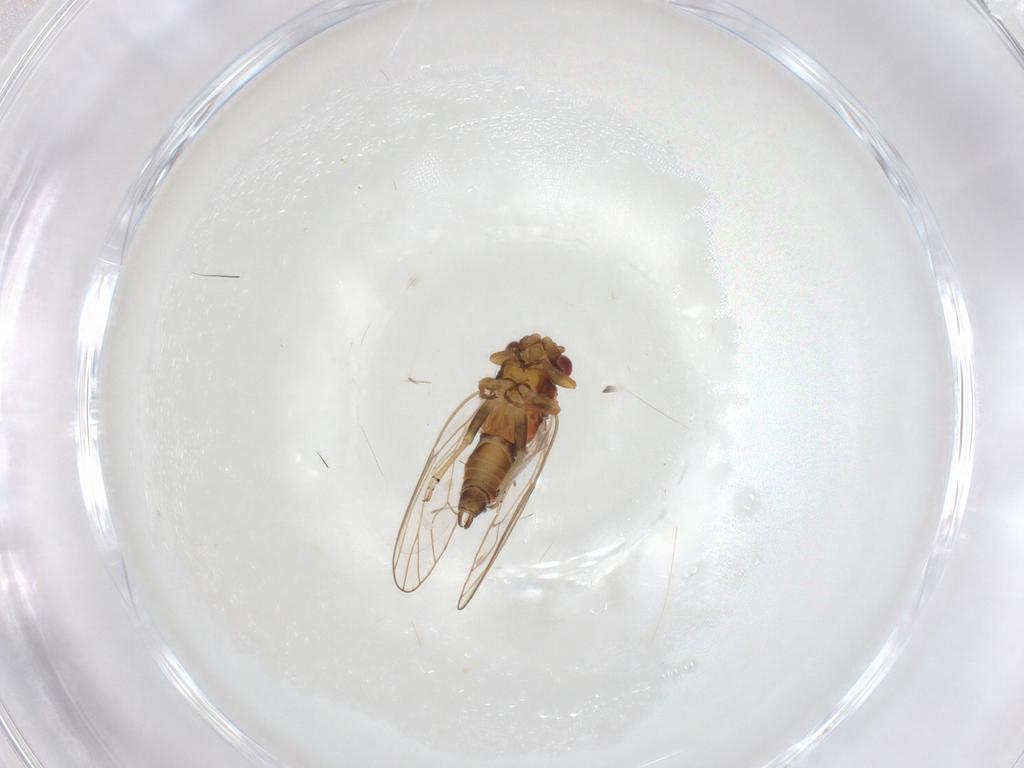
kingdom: Animalia
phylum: Arthropoda
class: Insecta
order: Hemiptera
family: Psyllidae
